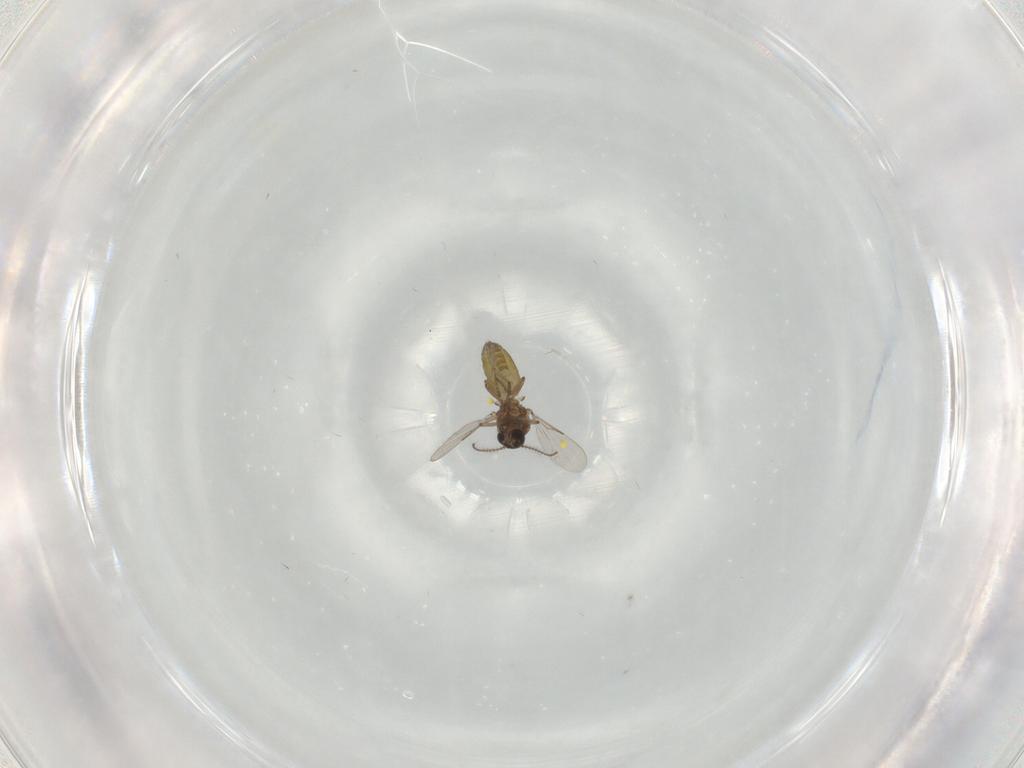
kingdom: Animalia
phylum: Arthropoda
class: Insecta
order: Diptera
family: Ceratopogonidae
